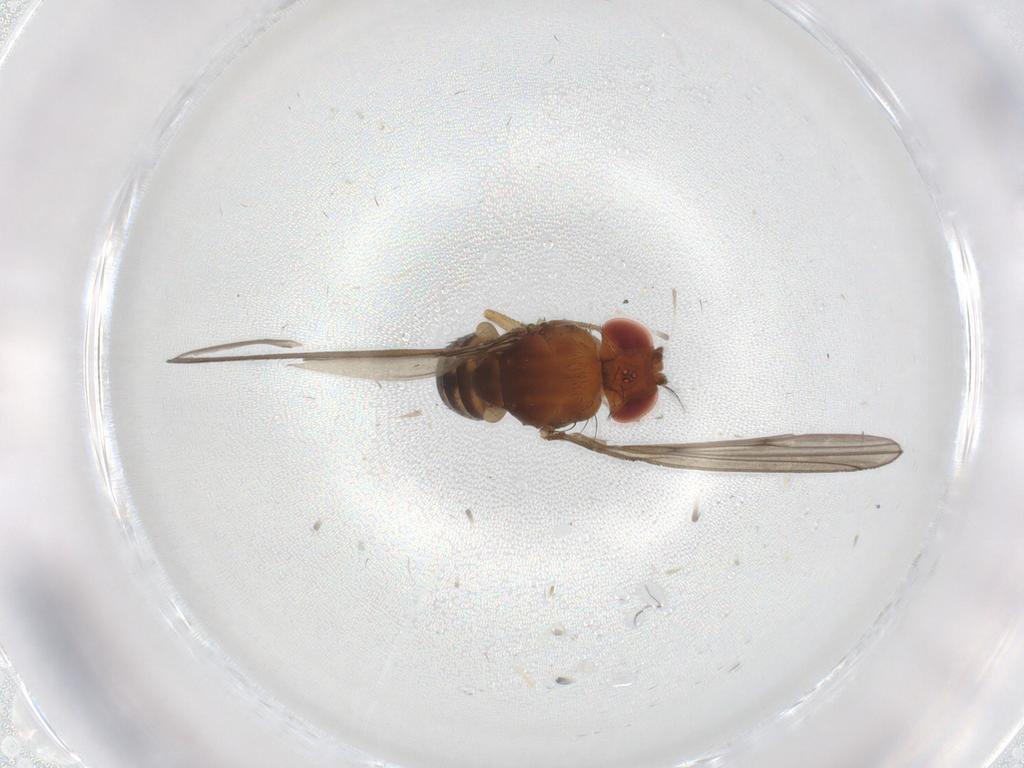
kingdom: Animalia
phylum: Arthropoda
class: Insecta
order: Diptera
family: Drosophilidae
